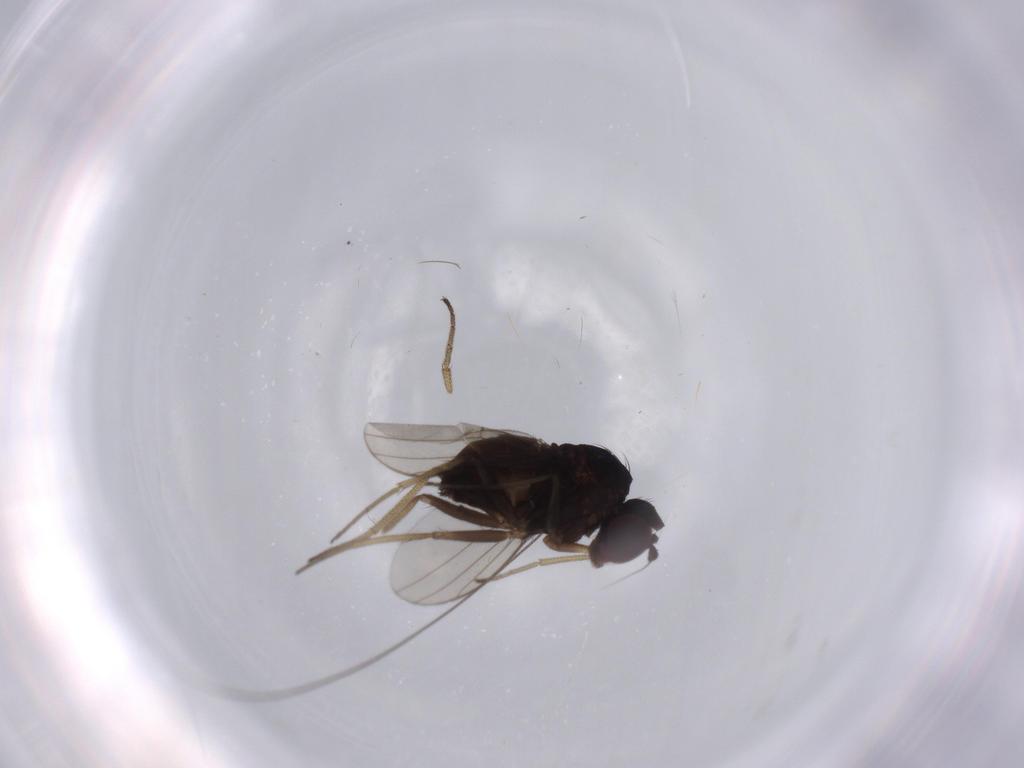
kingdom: Animalia
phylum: Arthropoda
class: Insecta
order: Diptera
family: Dolichopodidae
